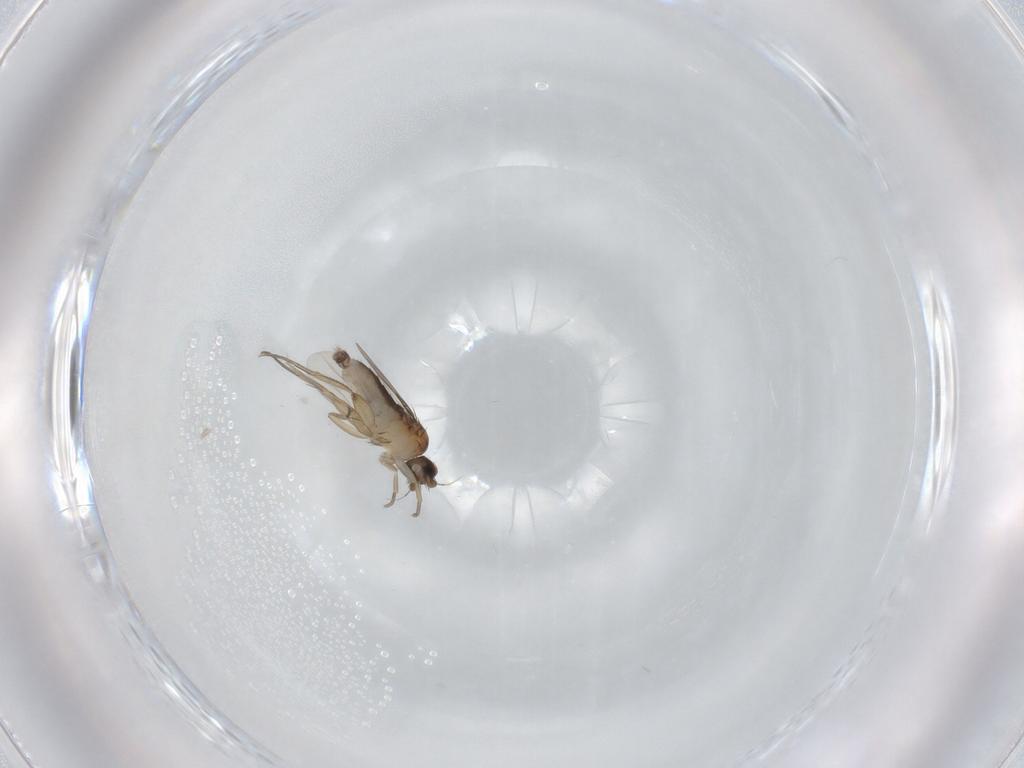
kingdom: Animalia
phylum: Arthropoda
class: Insecta
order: Diptera
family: Phoridae
